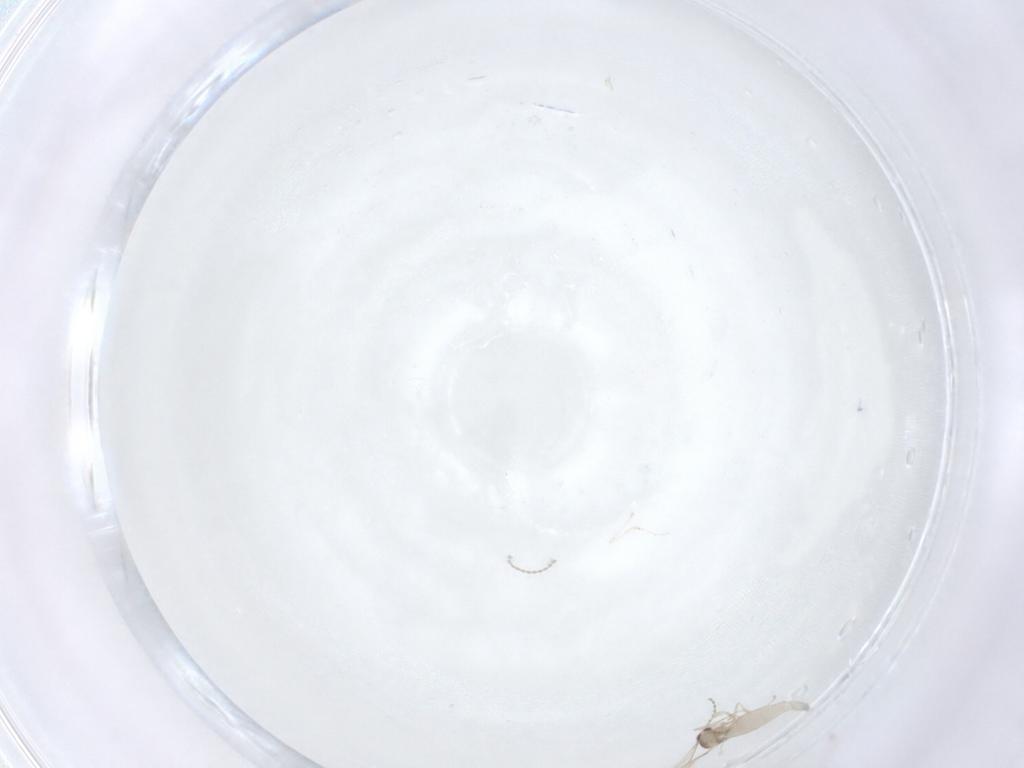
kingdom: Animalia
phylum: Arthropoda
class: Insecta
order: Diptera
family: Cecidomyiidae
